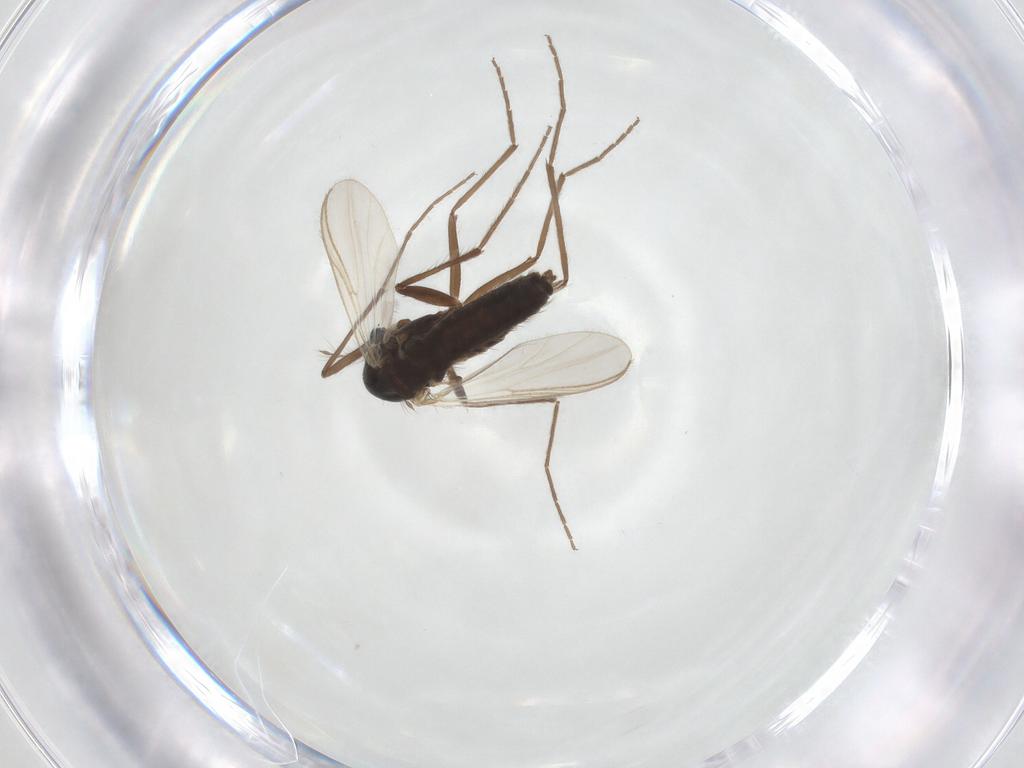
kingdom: Animalia
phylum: Arthropoda
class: Insecta
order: Diptera
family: Chironomidae
